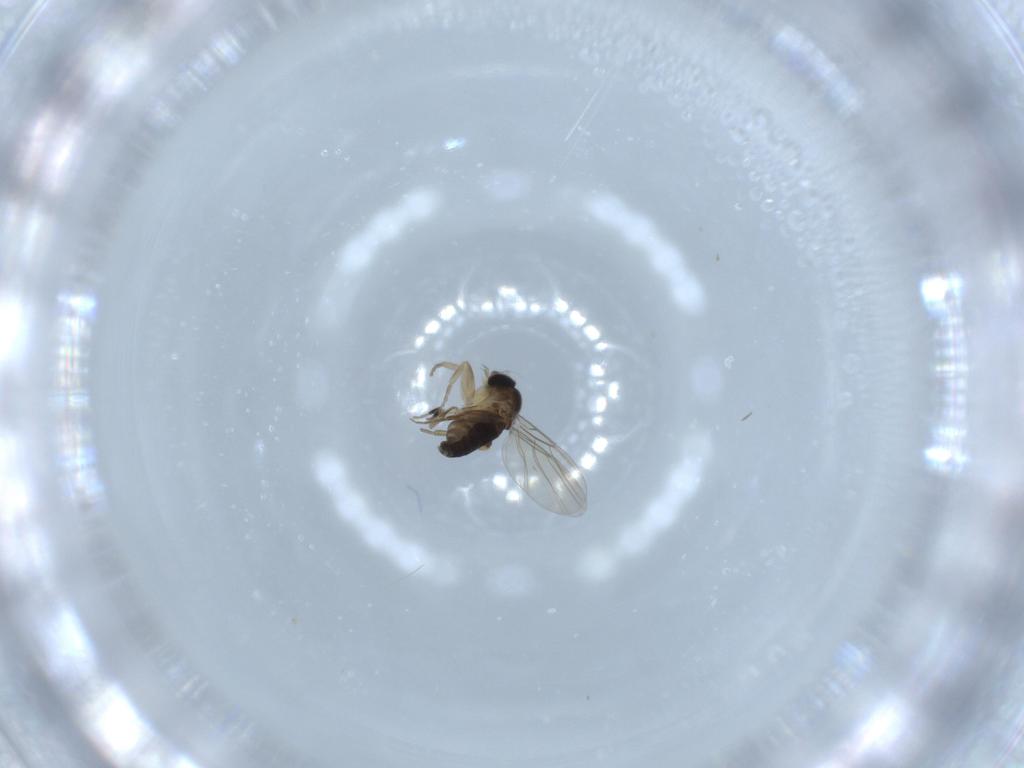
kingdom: Animalia
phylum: Arthropoda
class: Insecta
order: Diptera
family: Phoridae
